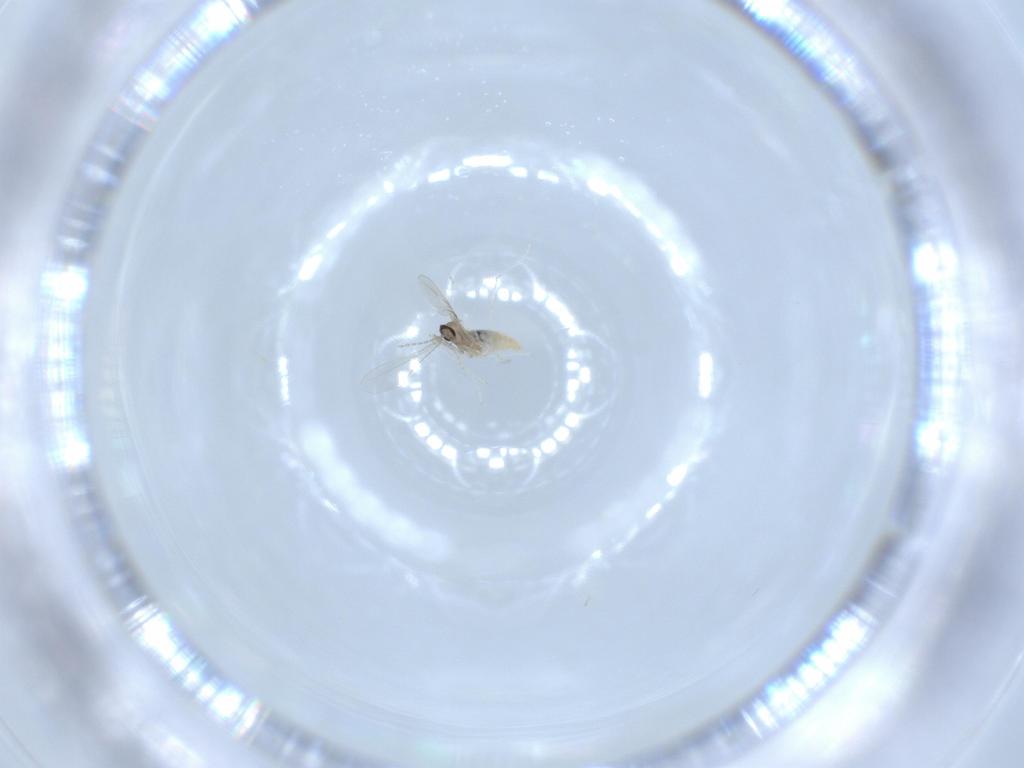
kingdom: Animalia
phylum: Arthropoda
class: Insecta
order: Diptera
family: Cecidomyiidae
